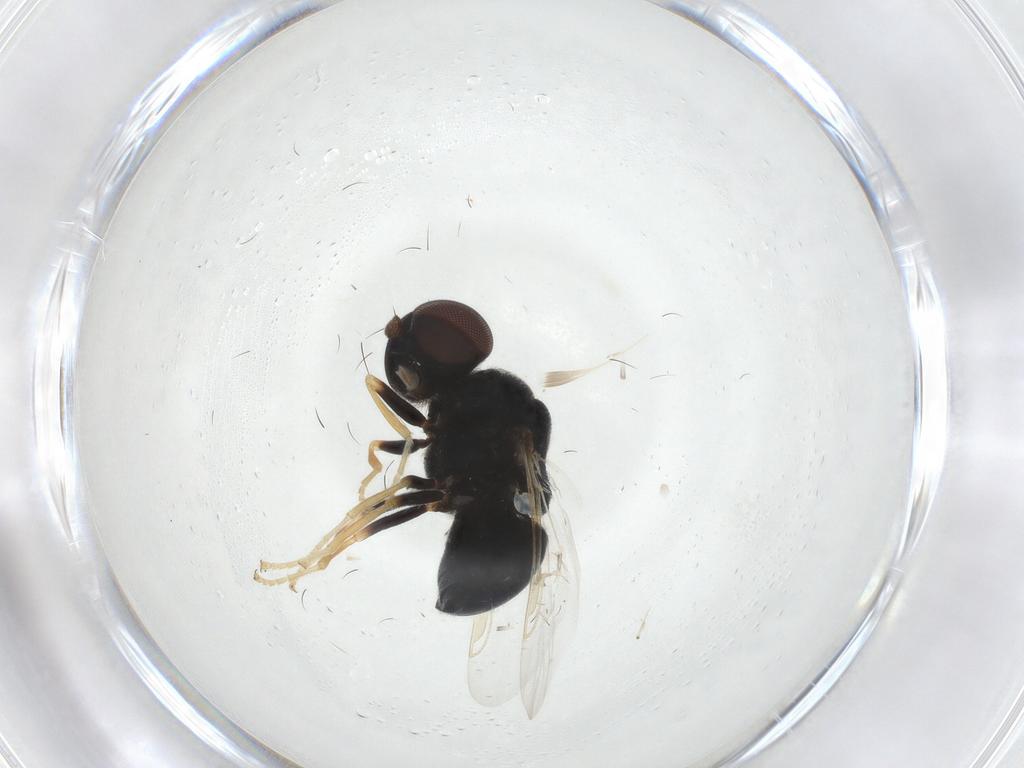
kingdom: Animalia
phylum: Arthropoda
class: Insecta
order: Diptera
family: Stratiomyidae
